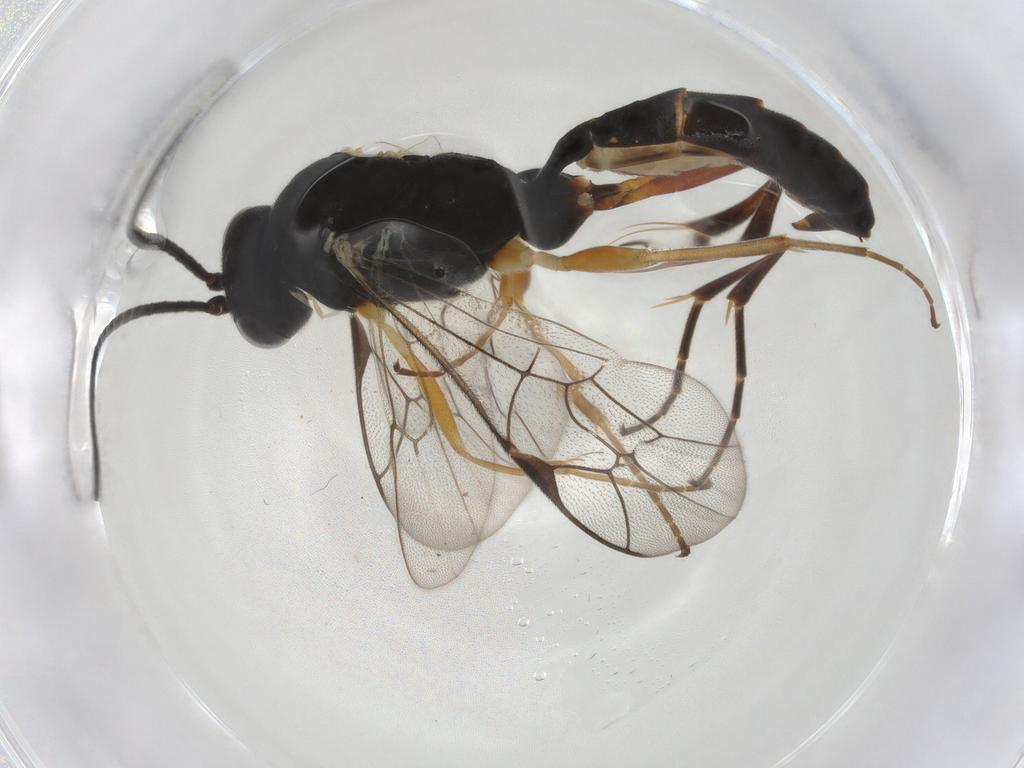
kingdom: Animalia
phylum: Arthropoda
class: Insecta
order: Hymenoptera
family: Ichneumonidae
